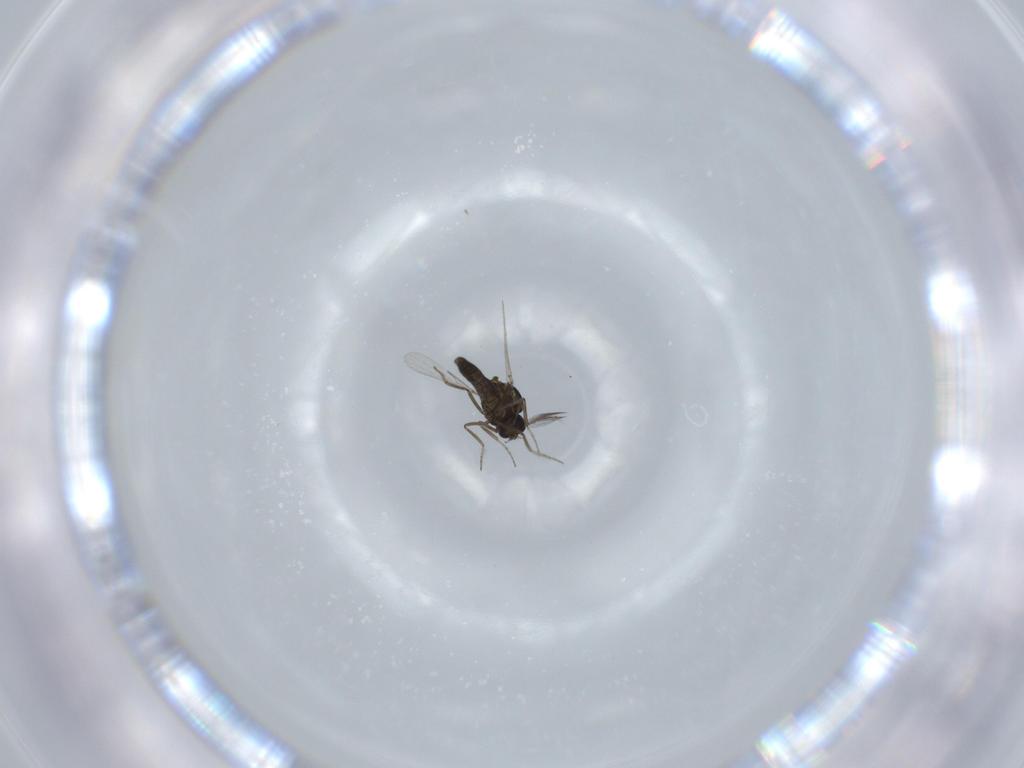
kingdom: Animalia
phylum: Arthropoda
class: Insecta
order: Diptera
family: Ceratopogonidae
